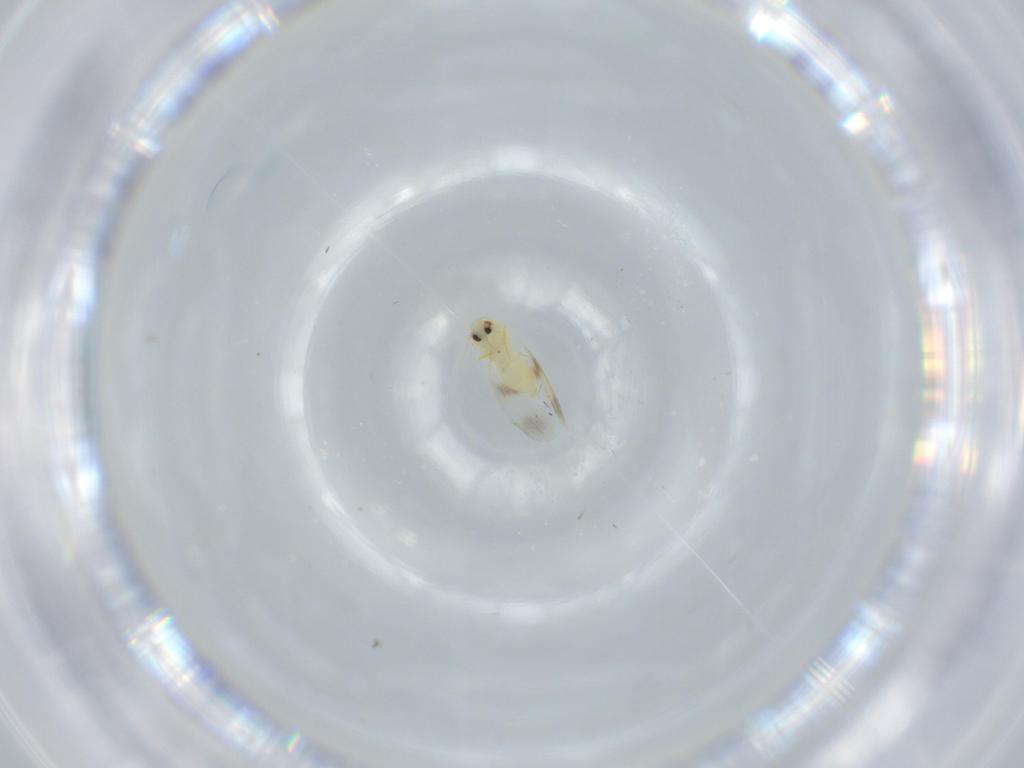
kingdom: Animalia
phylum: Arthropoda
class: Insecta
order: Hemiptera
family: Aleyrodidae
